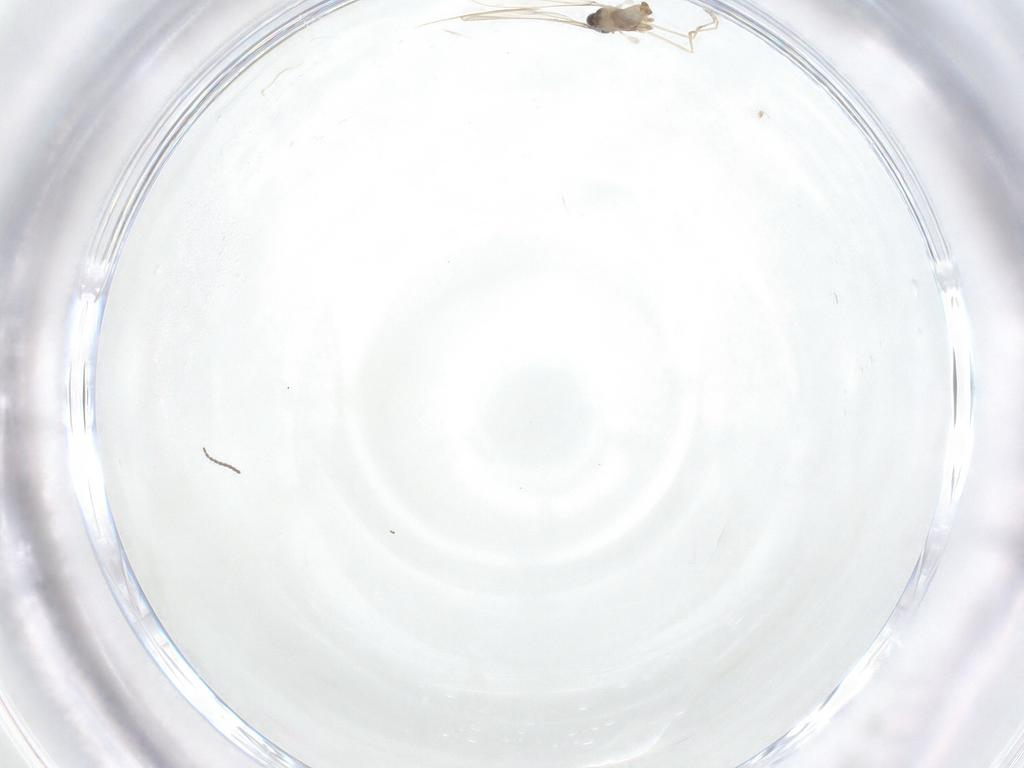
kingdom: Animalia
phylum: Arthropoda
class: Insecta
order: Diptera
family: Cecidomyiidae
